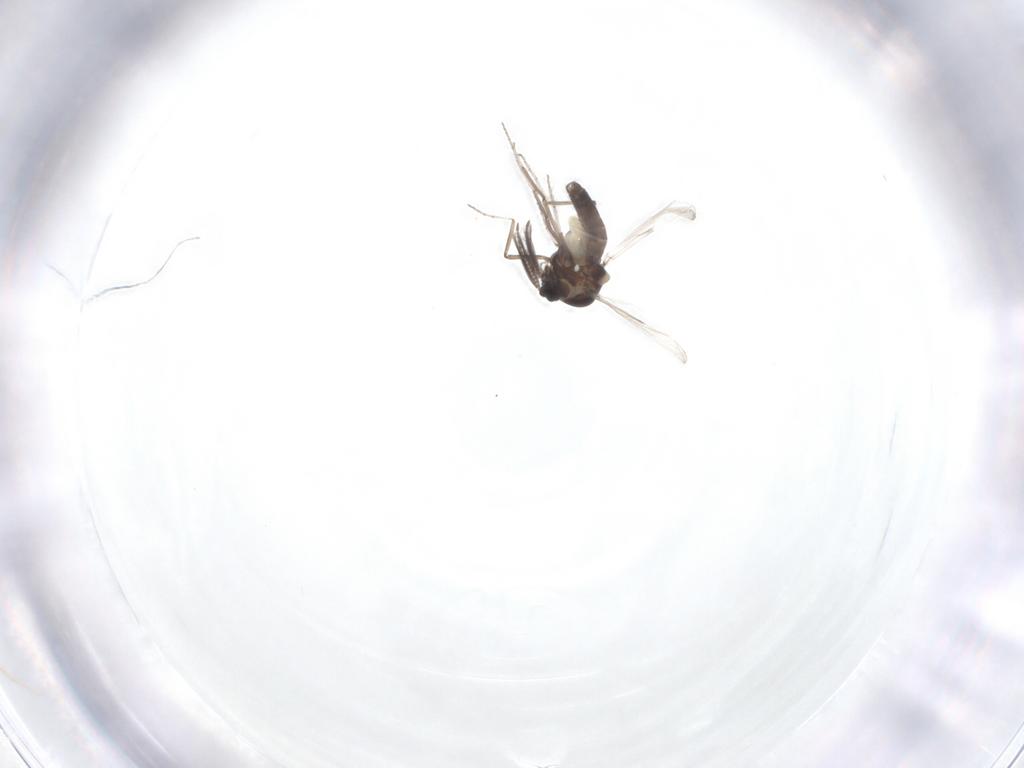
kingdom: Animalia
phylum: Arthropoda
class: Insecta
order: Diptera
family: Ceratopogonidae
